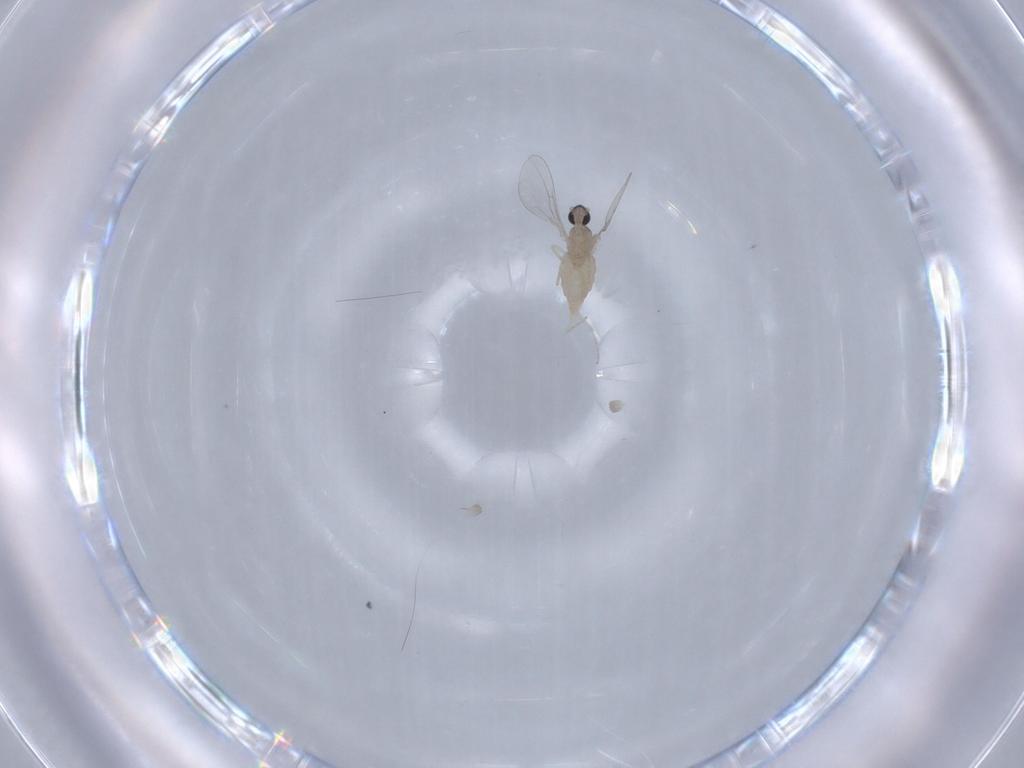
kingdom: Animalia
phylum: Arthropoda
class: Insecta
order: Diptera
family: Cecidomyiidae
